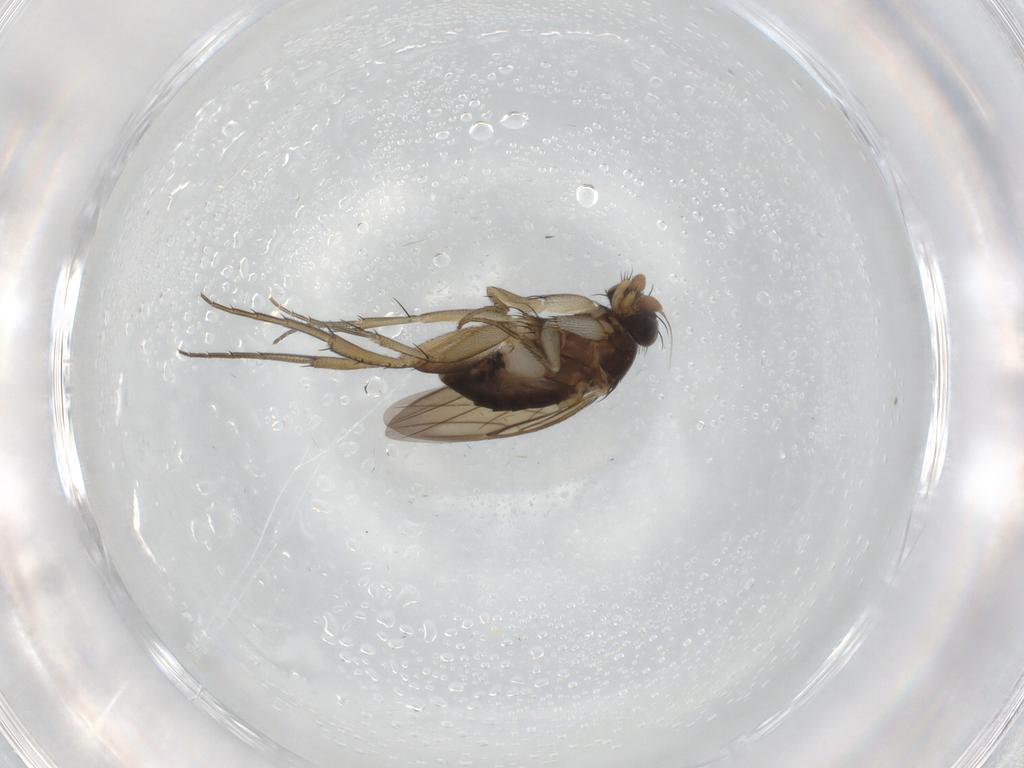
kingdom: Animalia
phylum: Arthropoda
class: Insecta
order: Diptera
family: Phoridae
